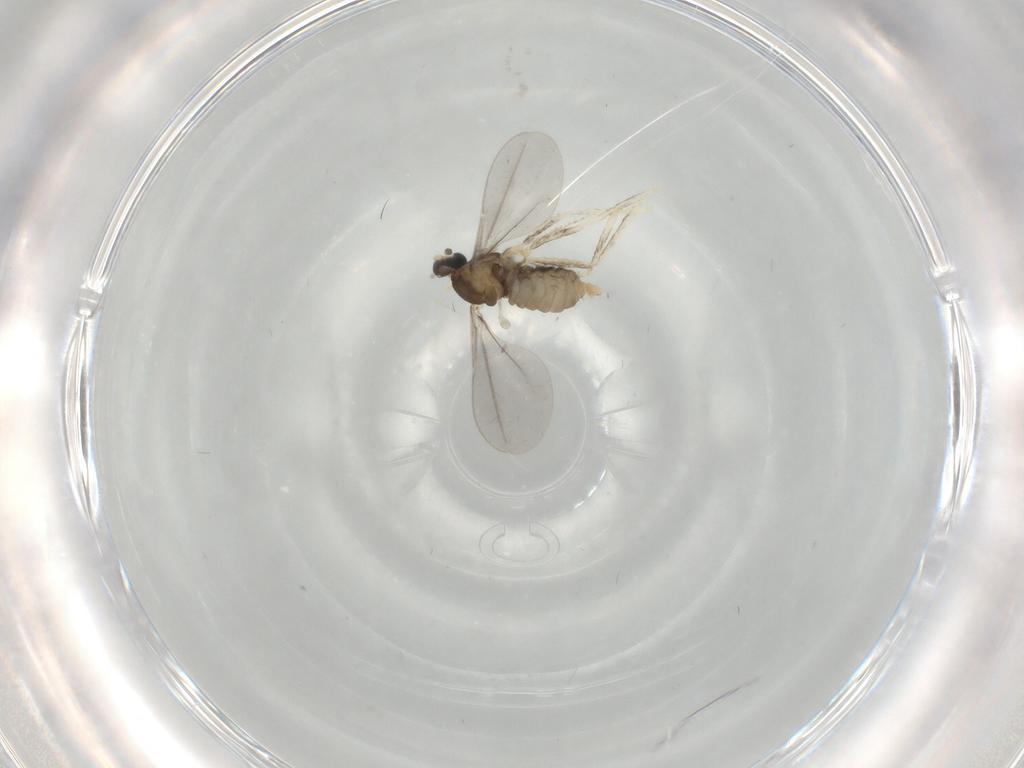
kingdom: Animalia
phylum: Arthropoda
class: Insecta
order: Diptera
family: Cecidomyiidae
